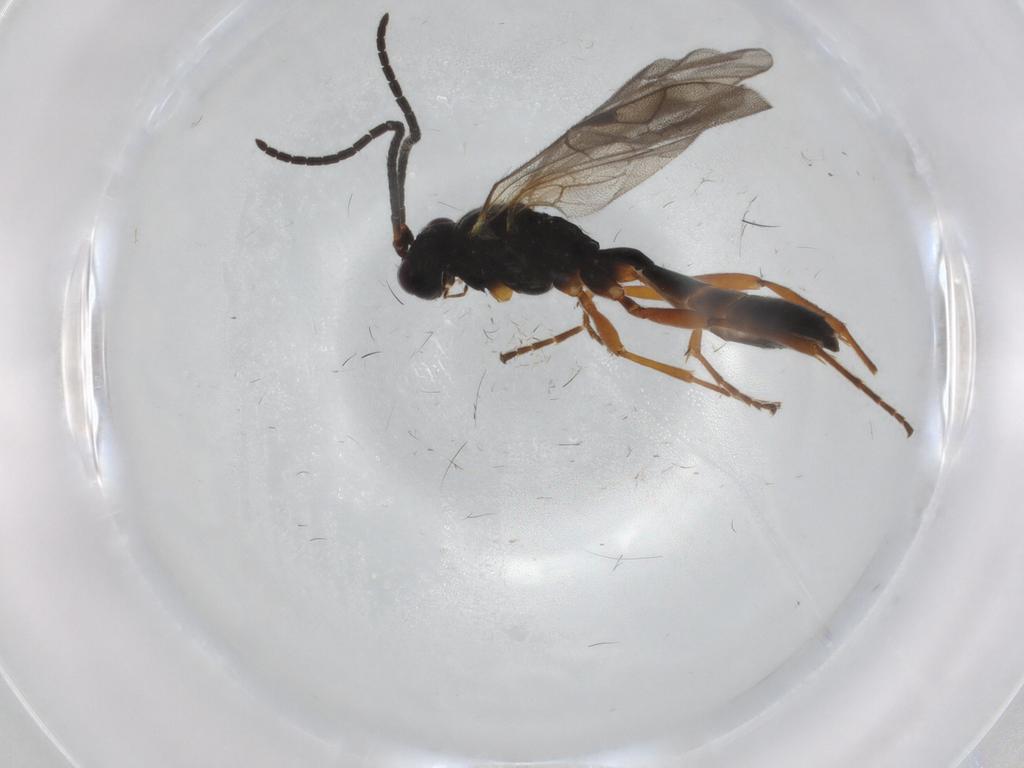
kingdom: Animalia
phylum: Arthropoda
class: Insecta
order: Hymenoptera
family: Ichneumonidae
